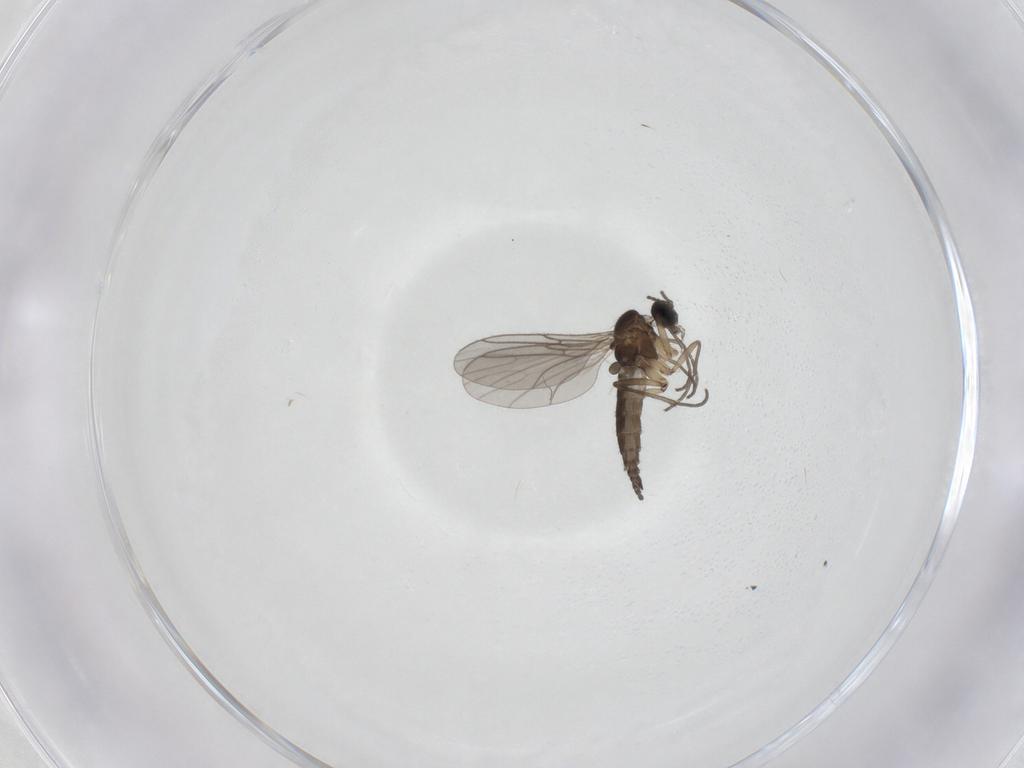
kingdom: Animalia
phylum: Arthropoda
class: Insecta
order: Diptera
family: Sciaridae
